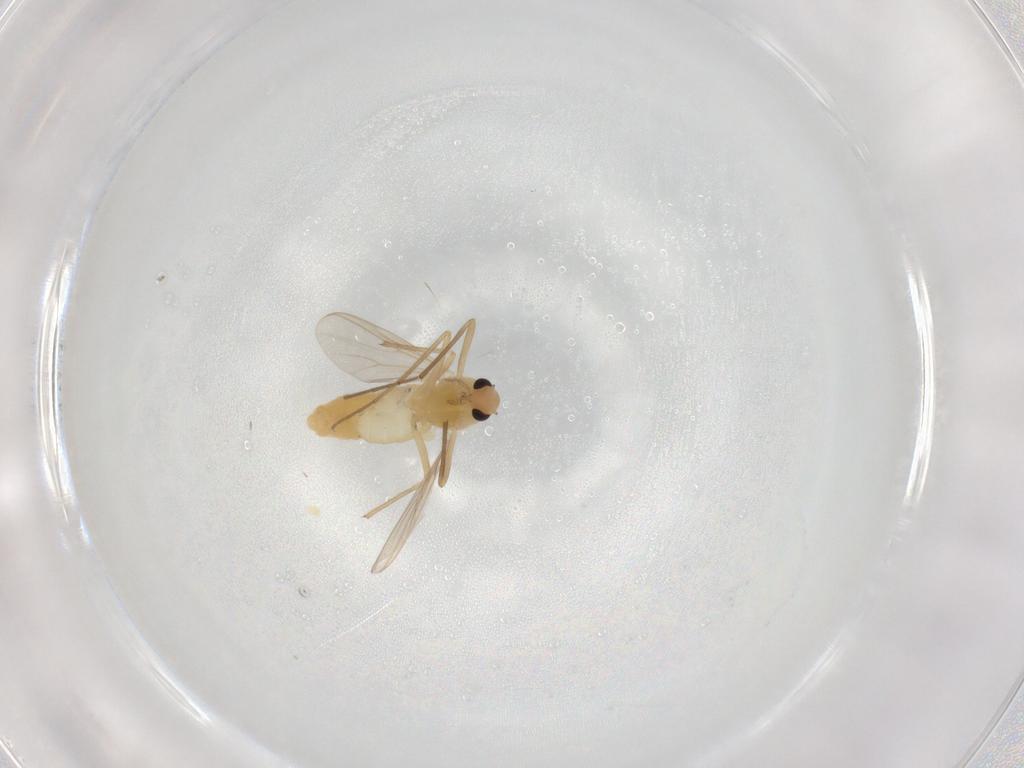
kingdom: Animalia
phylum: Arthropoda
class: Insecta
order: Diptera
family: Chironomidae
